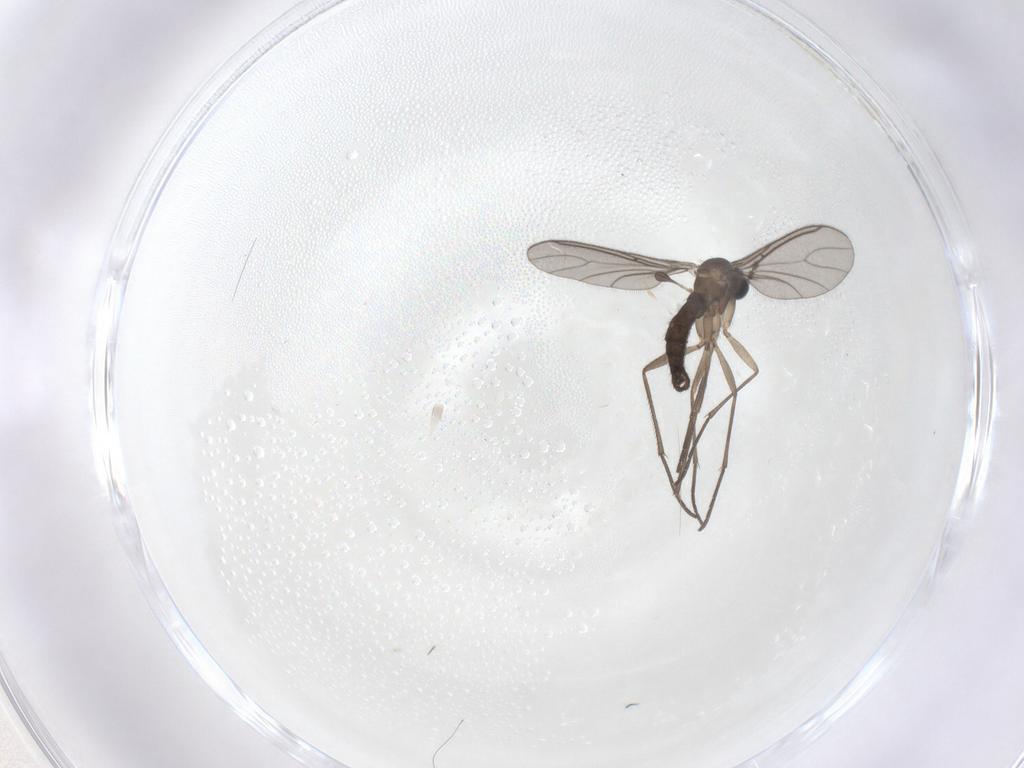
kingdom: Animalia
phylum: Arthropoda
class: Insecta
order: Diptera
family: Sciaridae
